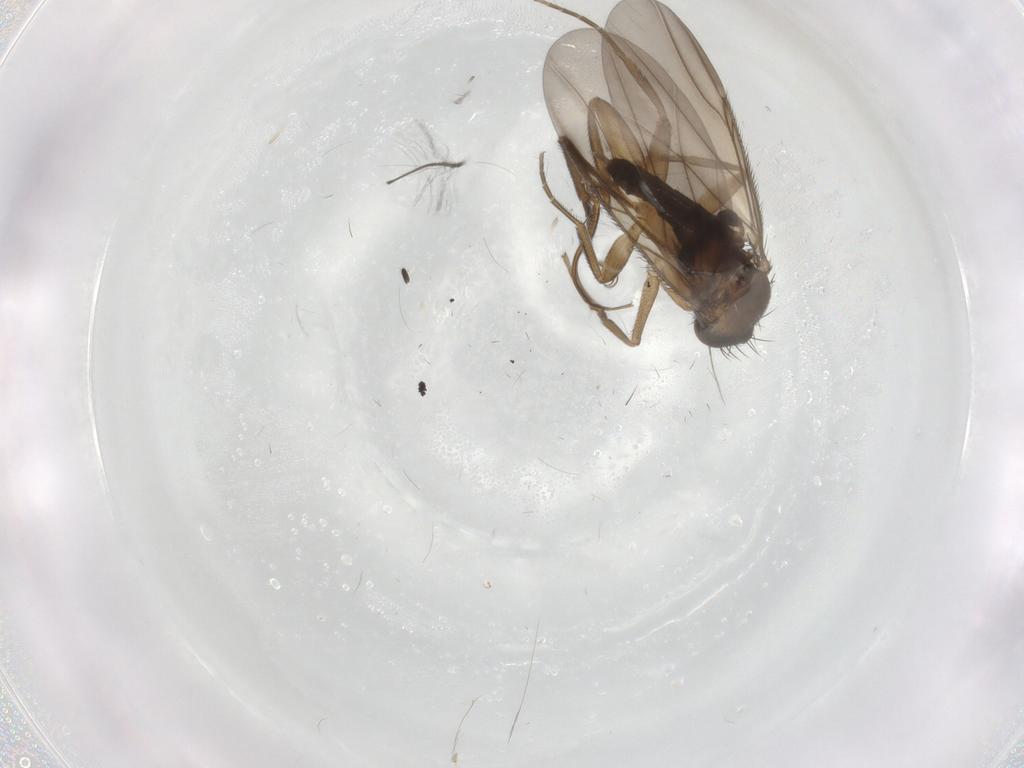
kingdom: Animalia
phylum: Arthropoda
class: Insecta
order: Diptera
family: Phoridae
